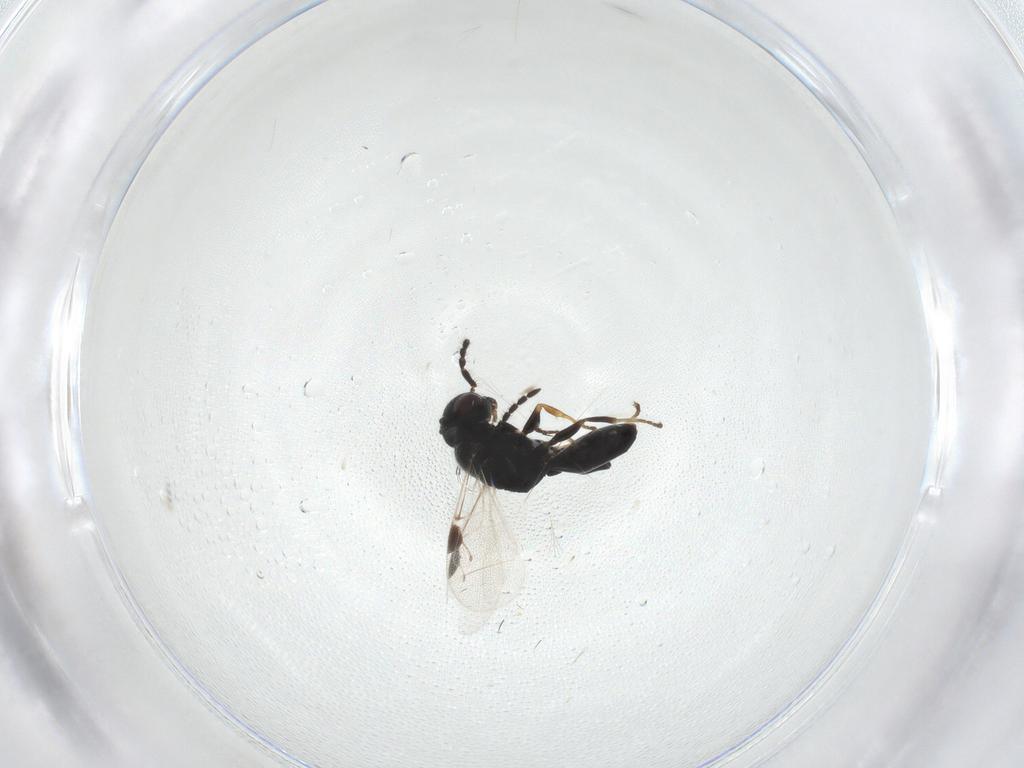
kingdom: Animalia
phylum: Arthropoda
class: Insecta
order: Hymenoptera
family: Dryinidae
